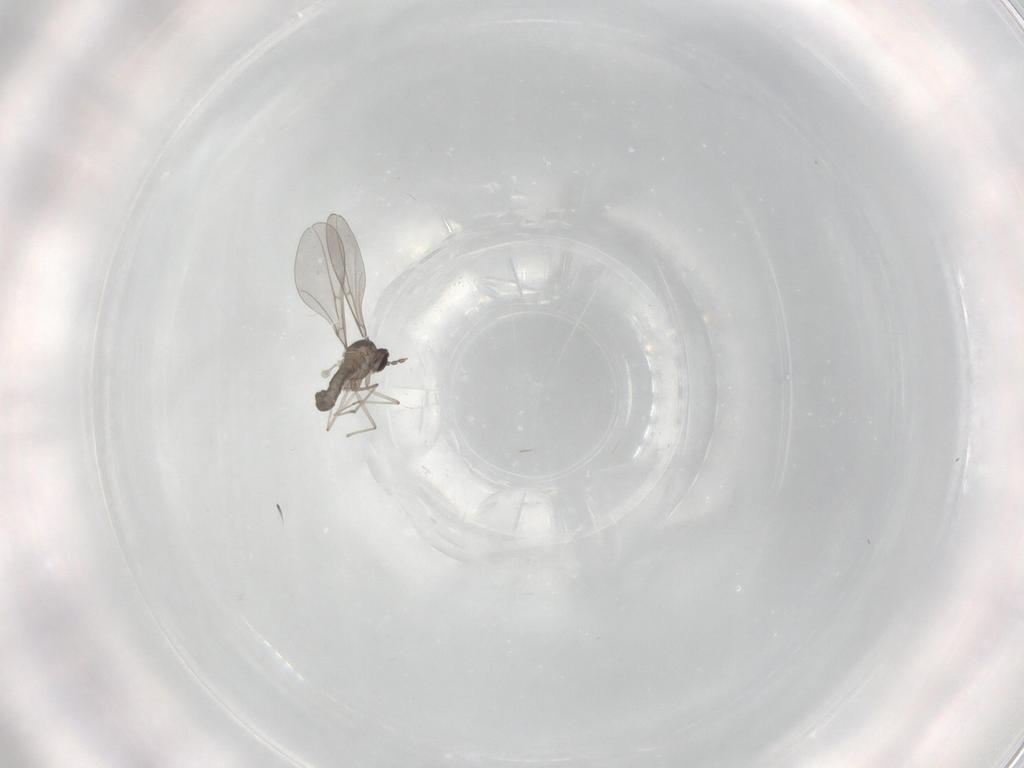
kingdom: Animalia
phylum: Arthropoda
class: Insecta
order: Diptera
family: Cecidomyiidae
